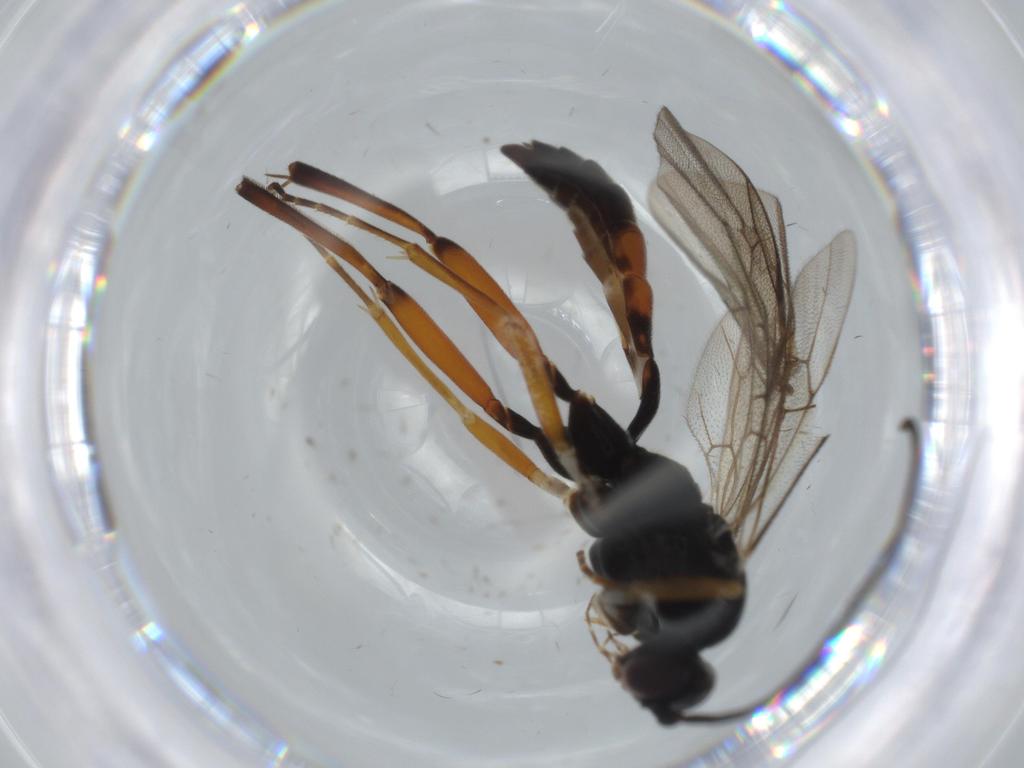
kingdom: Animalia
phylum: Arthropoda
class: Insecta
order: Hymenoptera
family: Ichneumonidae
